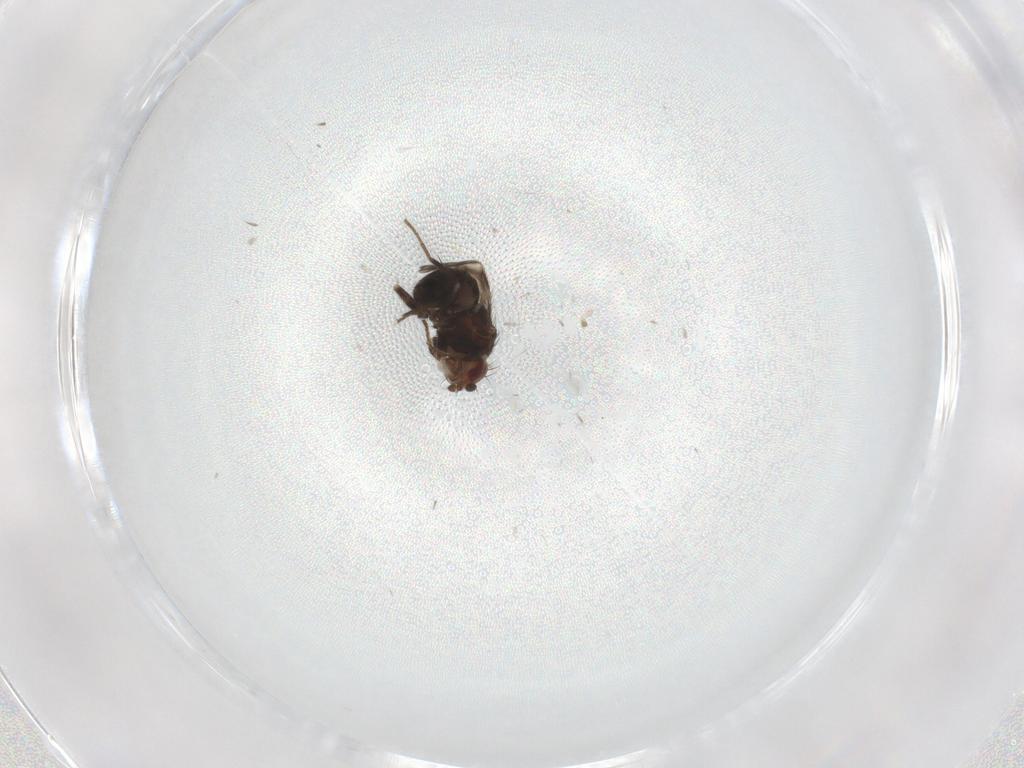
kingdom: Animalia
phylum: Arthropoda
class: Insecta
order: Diptera
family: Sphaeroceridae
